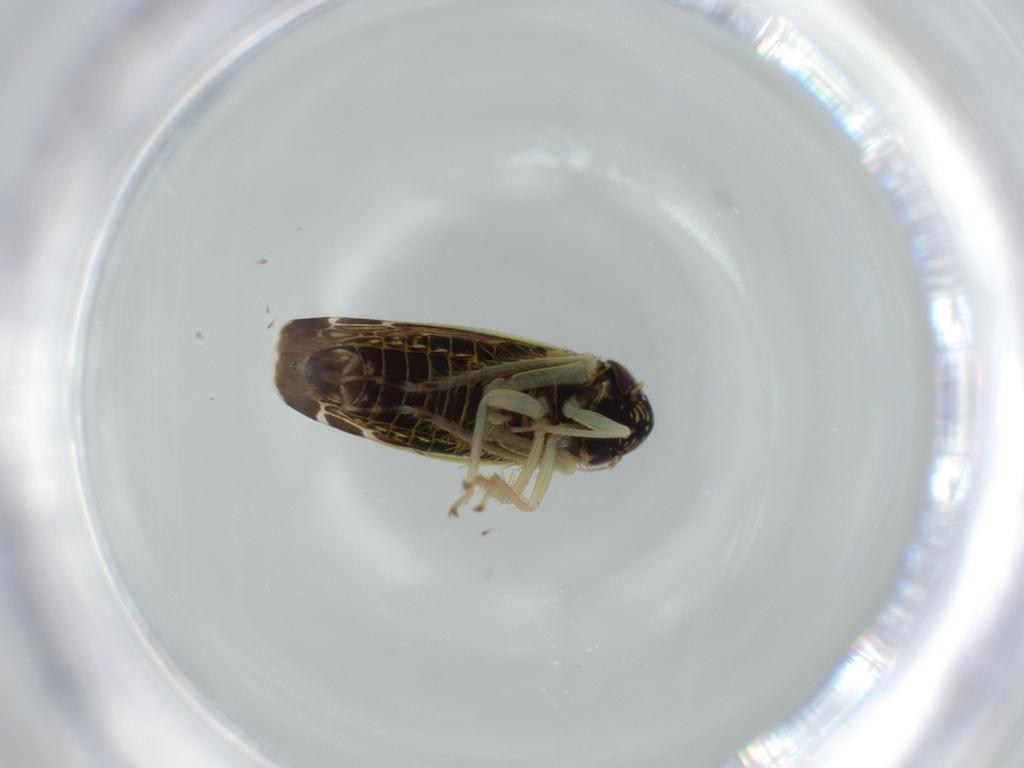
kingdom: Animalia
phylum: Arthropoda
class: Insecta
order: Hemiptera
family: Cicadellidae
